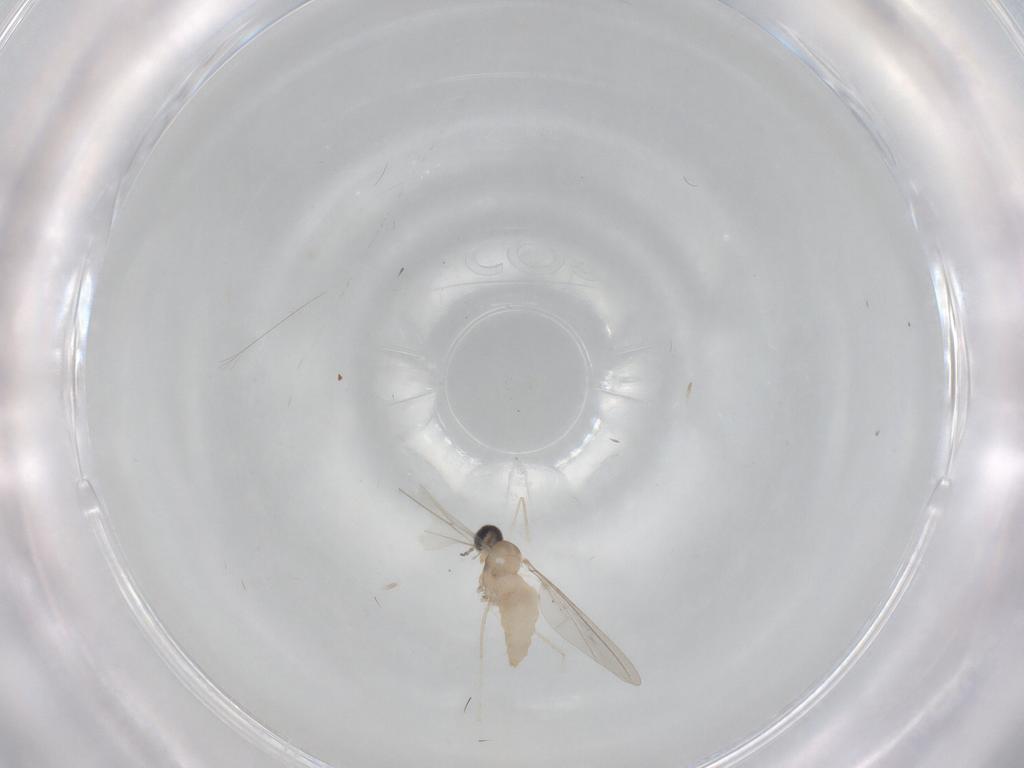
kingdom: Animalia
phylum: Arthropoda
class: Insecta
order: Diptera
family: Cecidomyiidae
